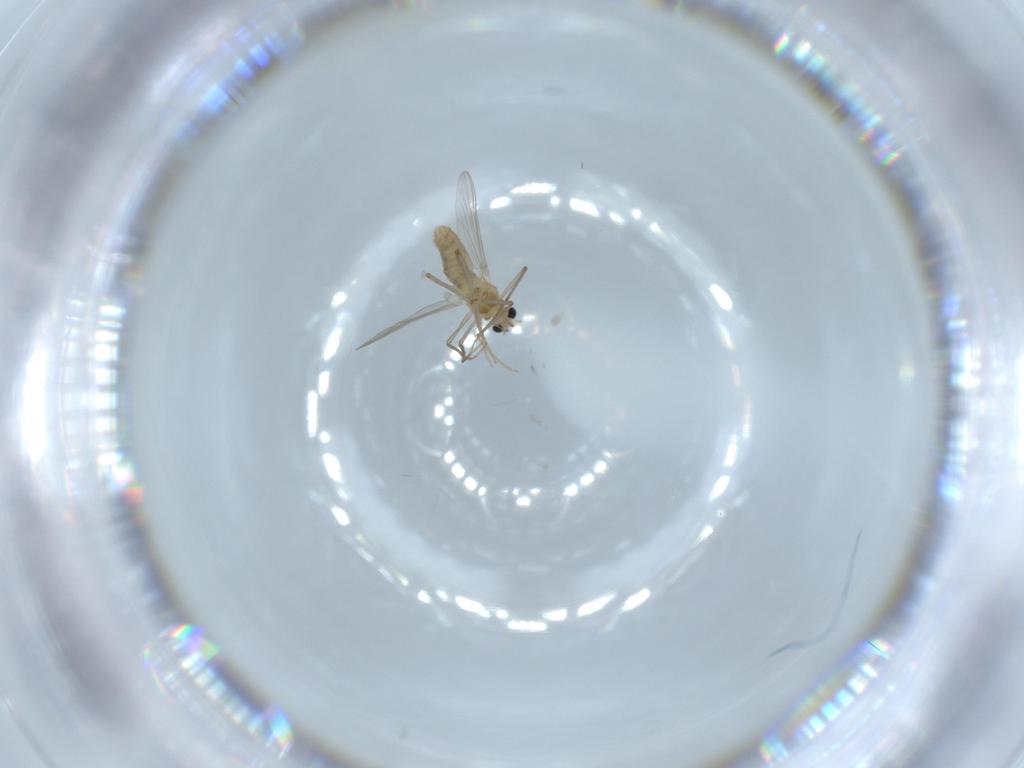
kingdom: Animalia
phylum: Arthropoda
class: Insecta
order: Diptera
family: Chironomidae
